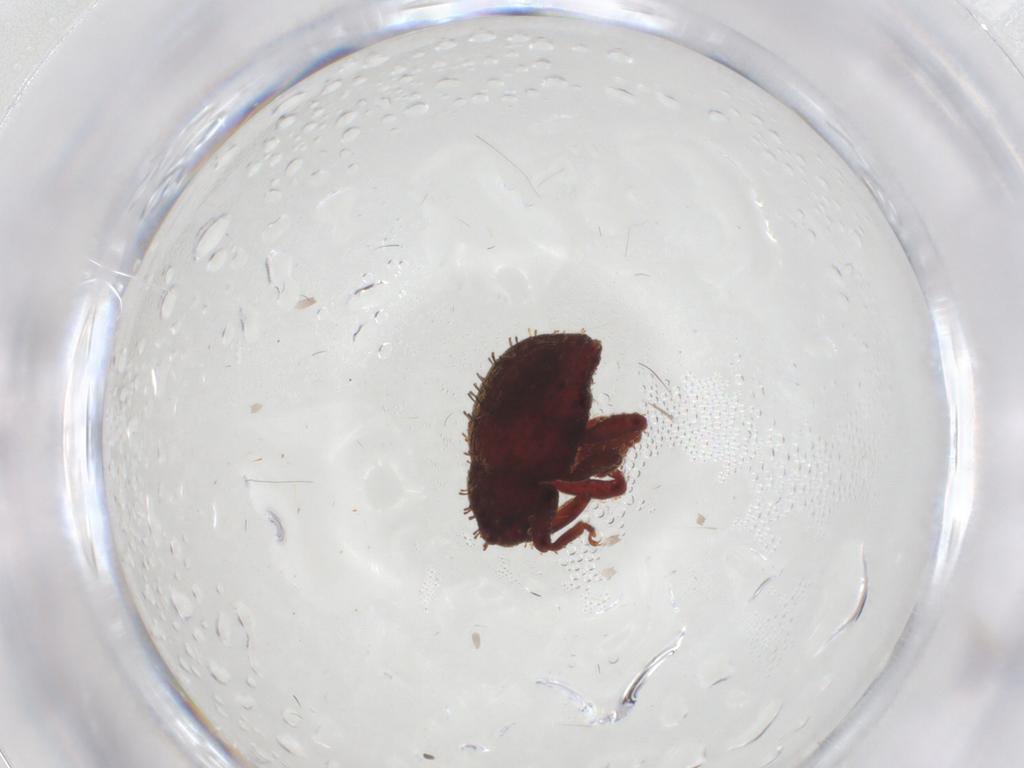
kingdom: Animalia
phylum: Arthropoda
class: Insecta
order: Coleoptera
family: Curculionidae
